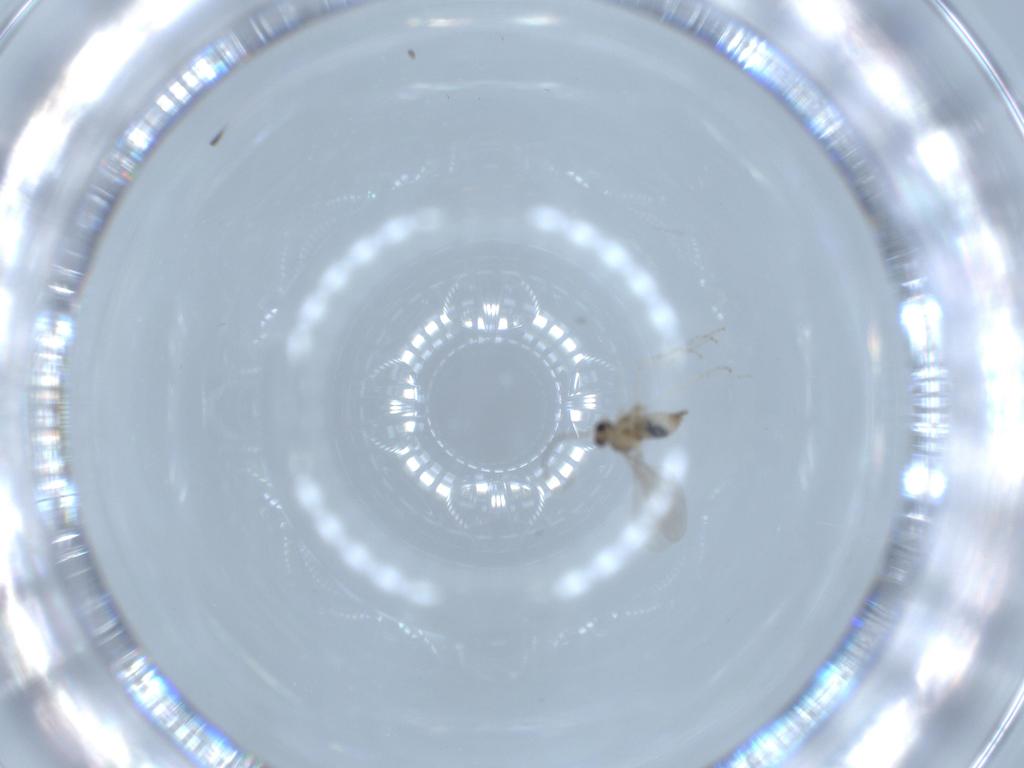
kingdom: Animalia
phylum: Arthropoda
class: Insecta
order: Diptera
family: Cecidomyiidae
